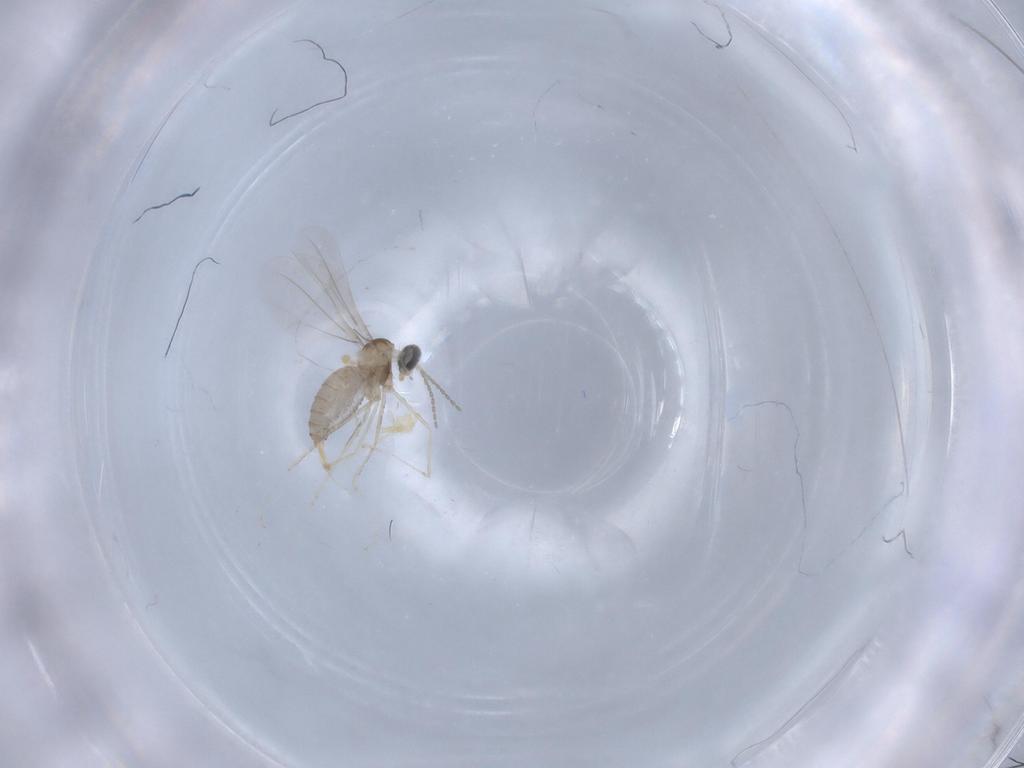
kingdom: Animalia
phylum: Arthropoda
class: Insecta
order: Diptera
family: Cecidomyiidae
